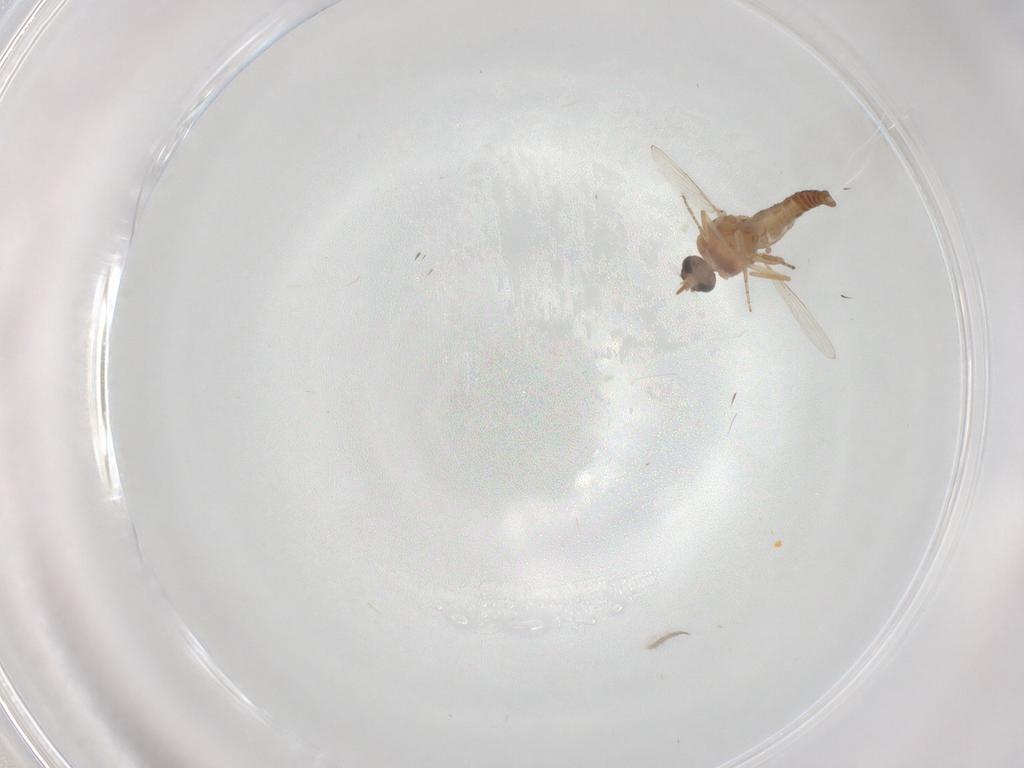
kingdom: Animalia
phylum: Arthropoda
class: Insecta
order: Diptera
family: Ceratopogonidae
